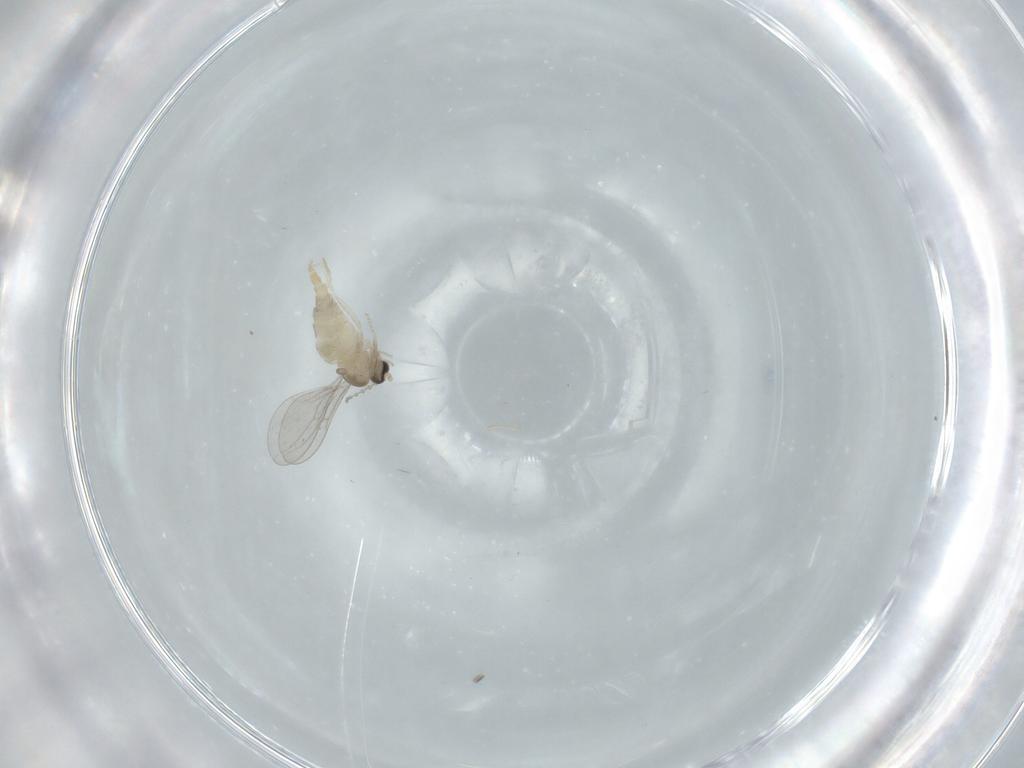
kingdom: Animalia
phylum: Arthropoda
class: Insecta
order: Diptera
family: Cecidomyiidae
